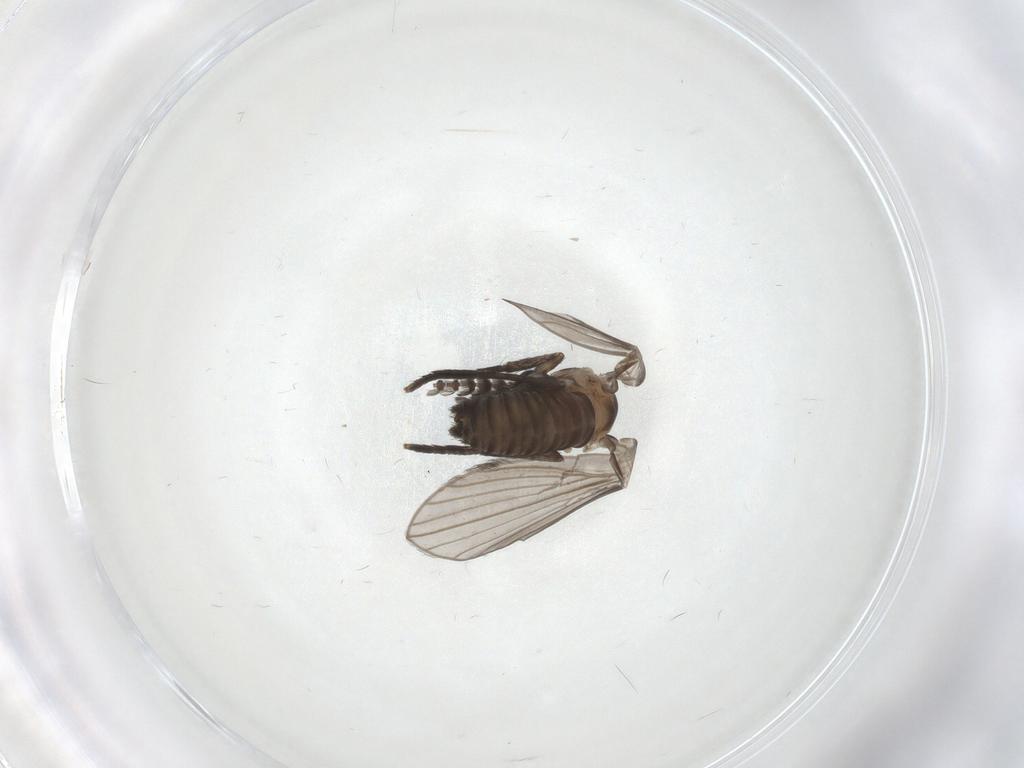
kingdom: Animalia
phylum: Arthropoda
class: Insecta
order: Diptera
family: Psychodidae
